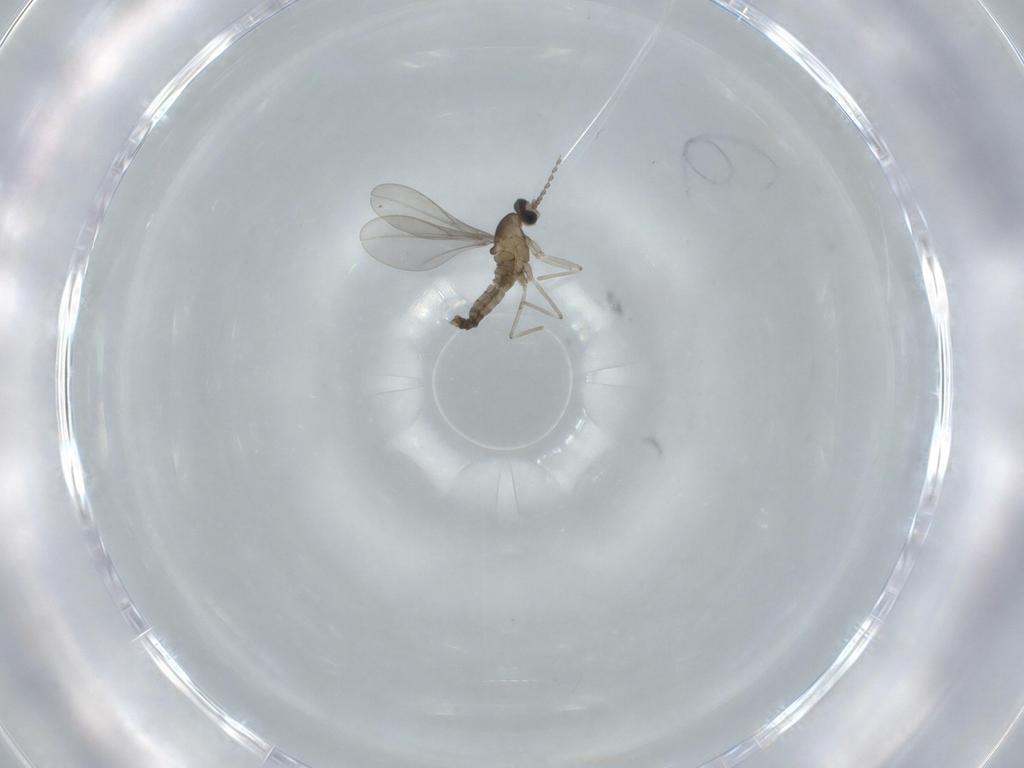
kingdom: Animalia
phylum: Arthropoda
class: Insecta
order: Diptera
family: Cecidomyiidae
